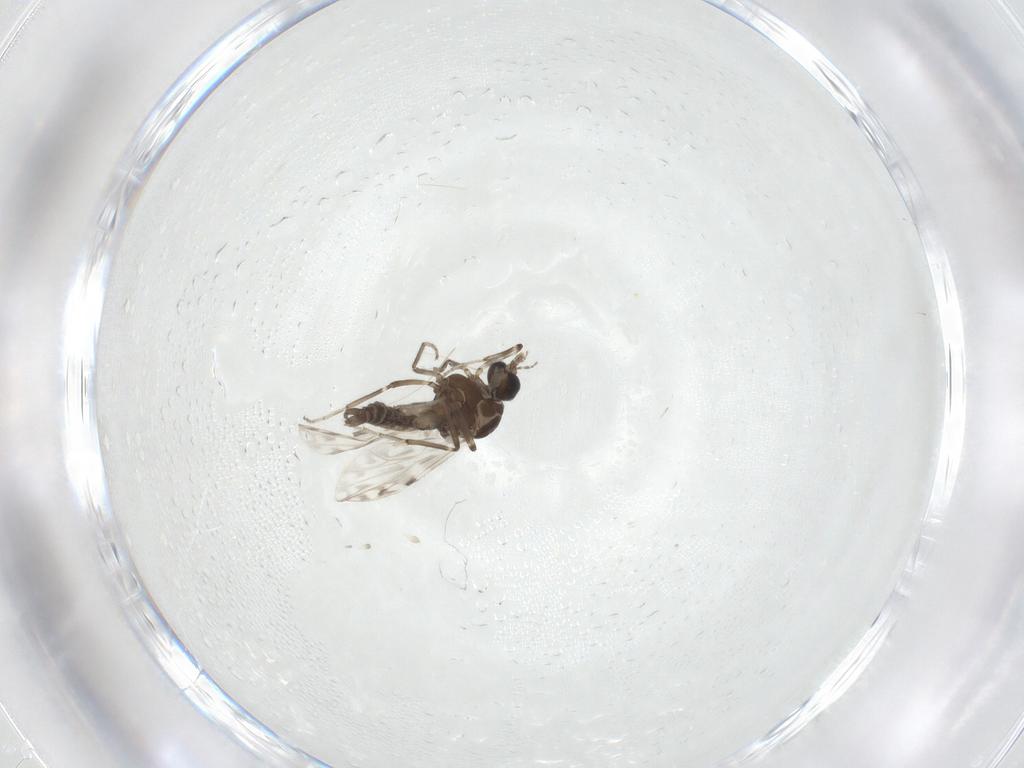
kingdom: Animalia
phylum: Arthropoda
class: Insecta
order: Diptera
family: Ceratopogonidae
